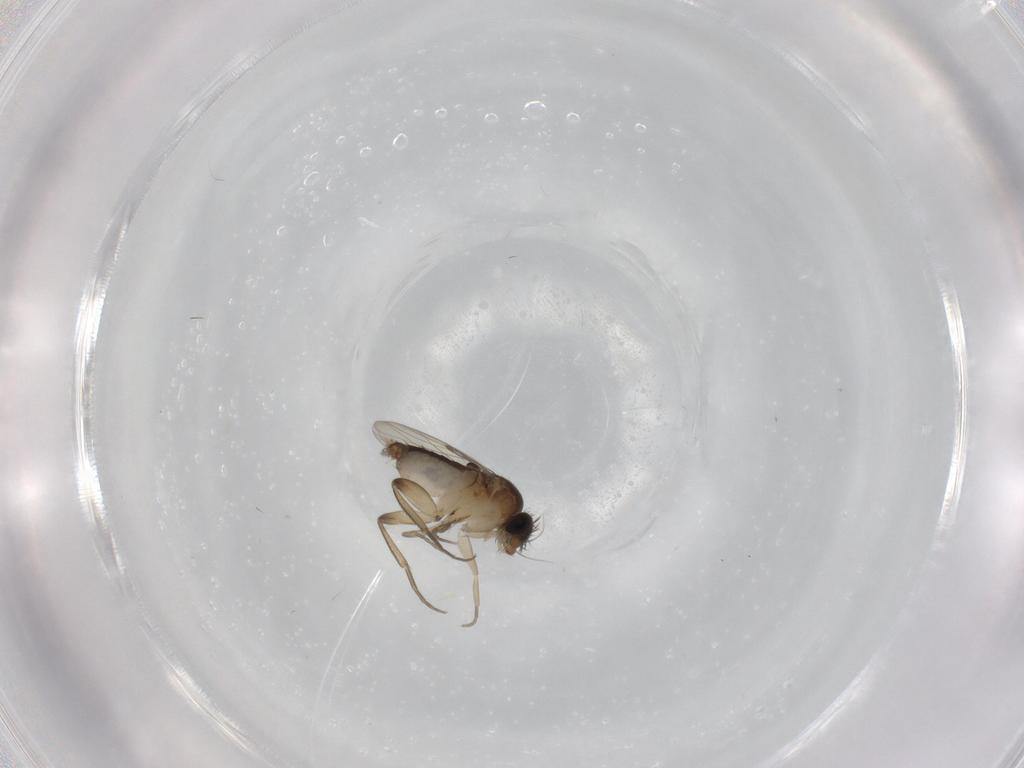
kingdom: Animalia
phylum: Arthropoda
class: Insecta
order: Diptera
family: Phoridae
